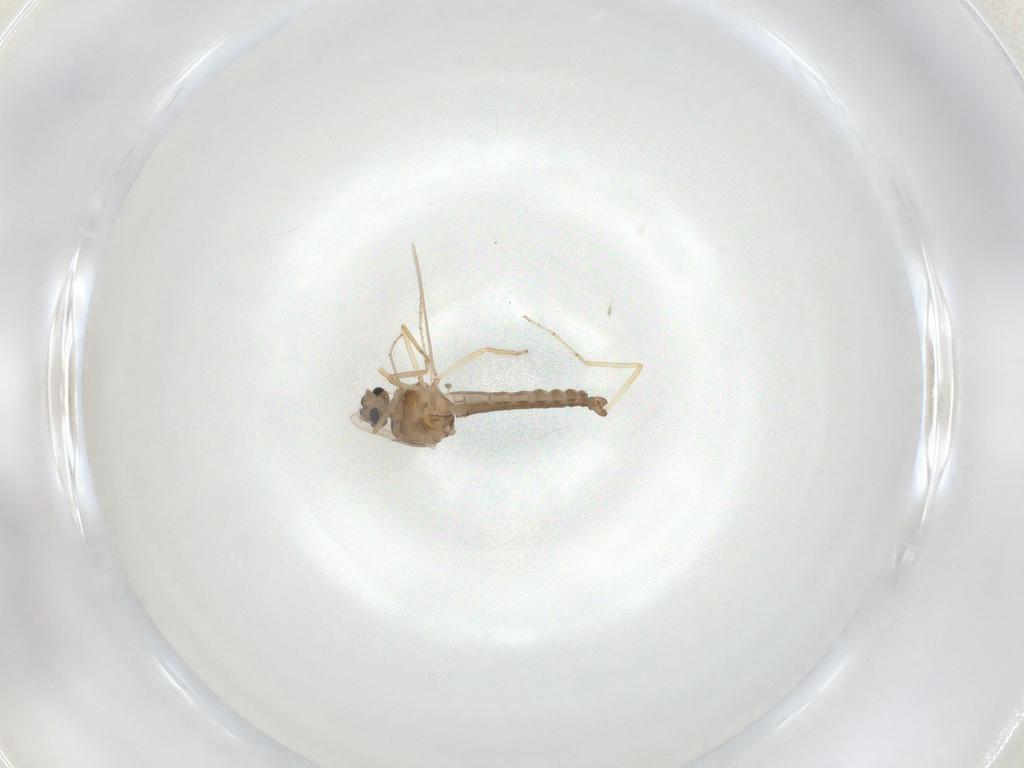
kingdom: Animalia
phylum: Arthropoda
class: Insecta
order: Diptera
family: Ceratopogonidae
